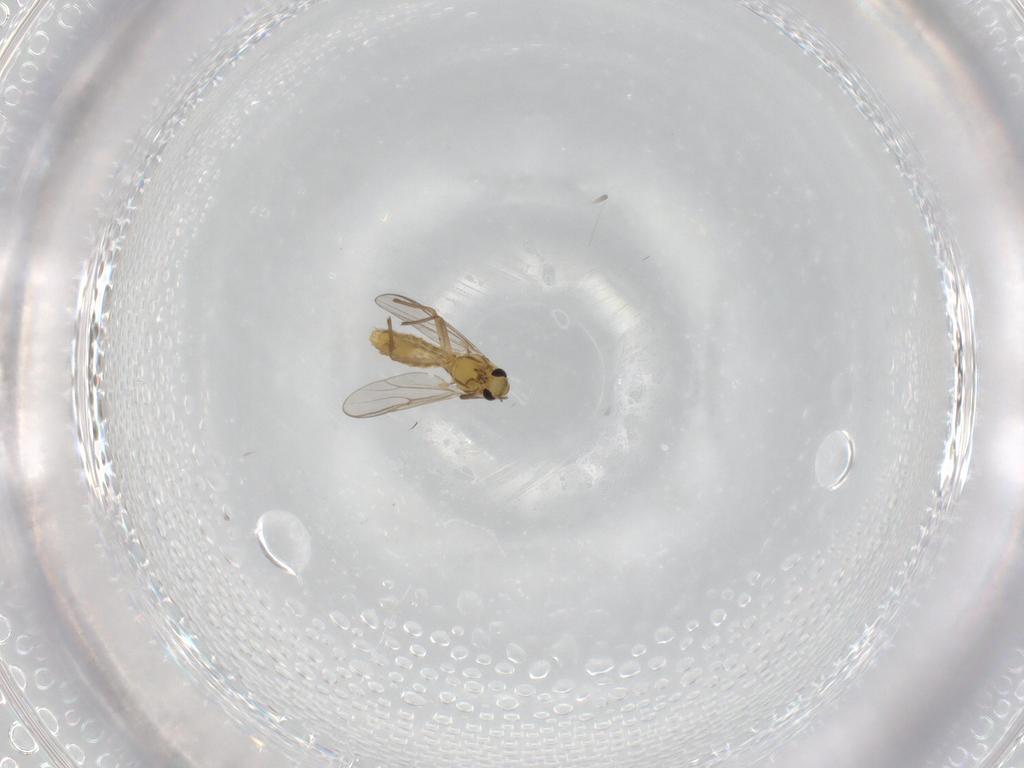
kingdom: Animalia
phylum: Arthropoda
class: Insecta
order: Diptera
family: Chironomidae
